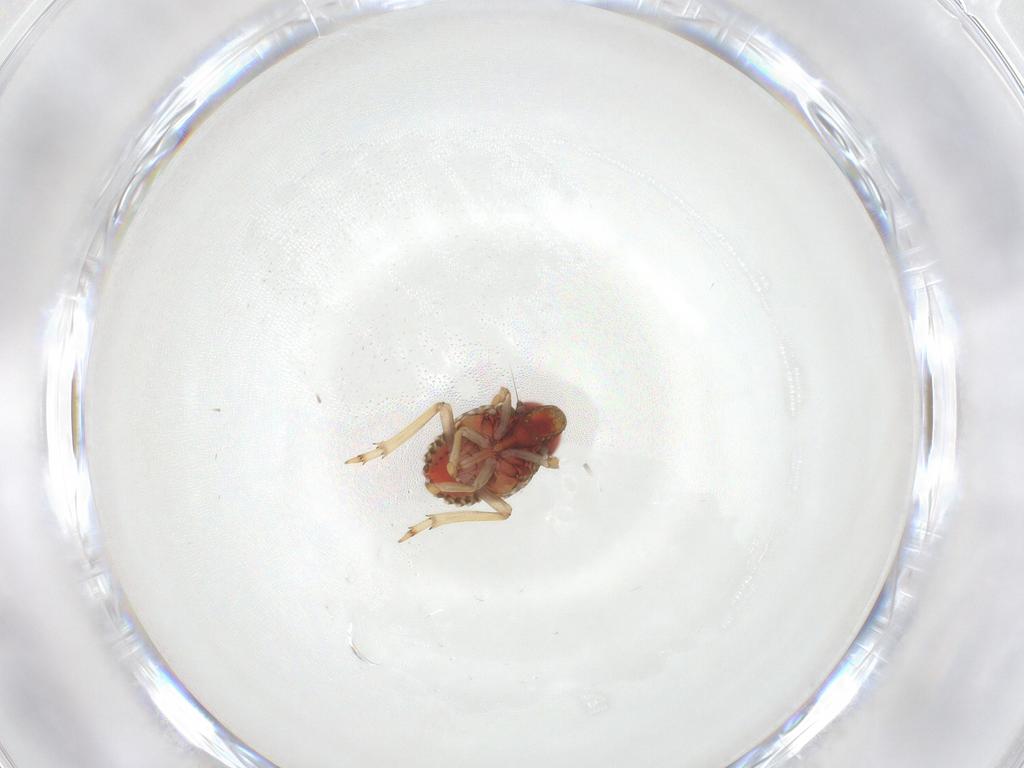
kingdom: Animalia
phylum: Arthropoda
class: Insecta
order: Hemiptera
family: Issidae
